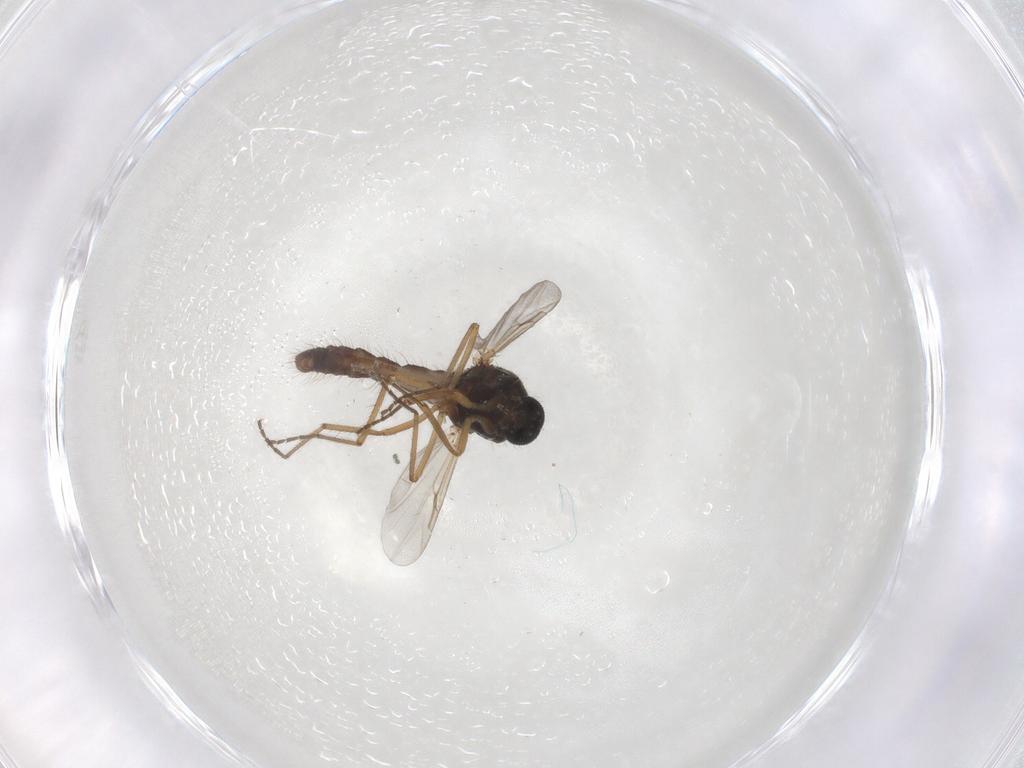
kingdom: Animalia
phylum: Arthropoda
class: Insecta
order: Diptera
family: Ceratopogonidae
